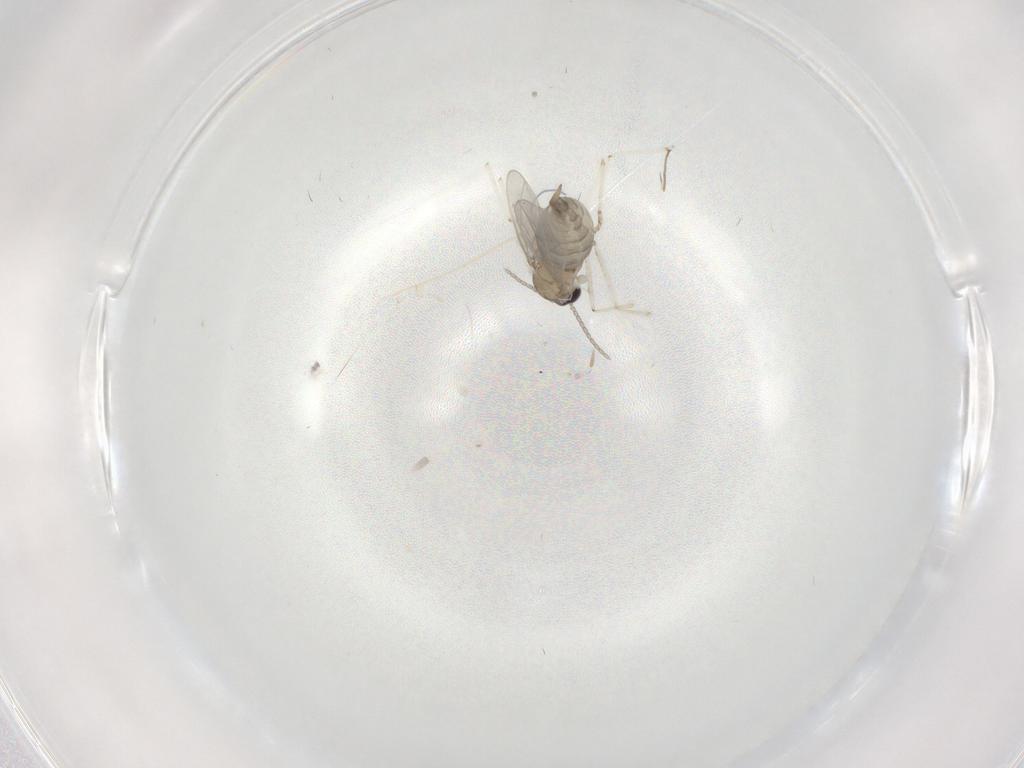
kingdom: Animalia
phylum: Arthropoda
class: Insecta
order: Diptera
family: Cecidomyiidae
